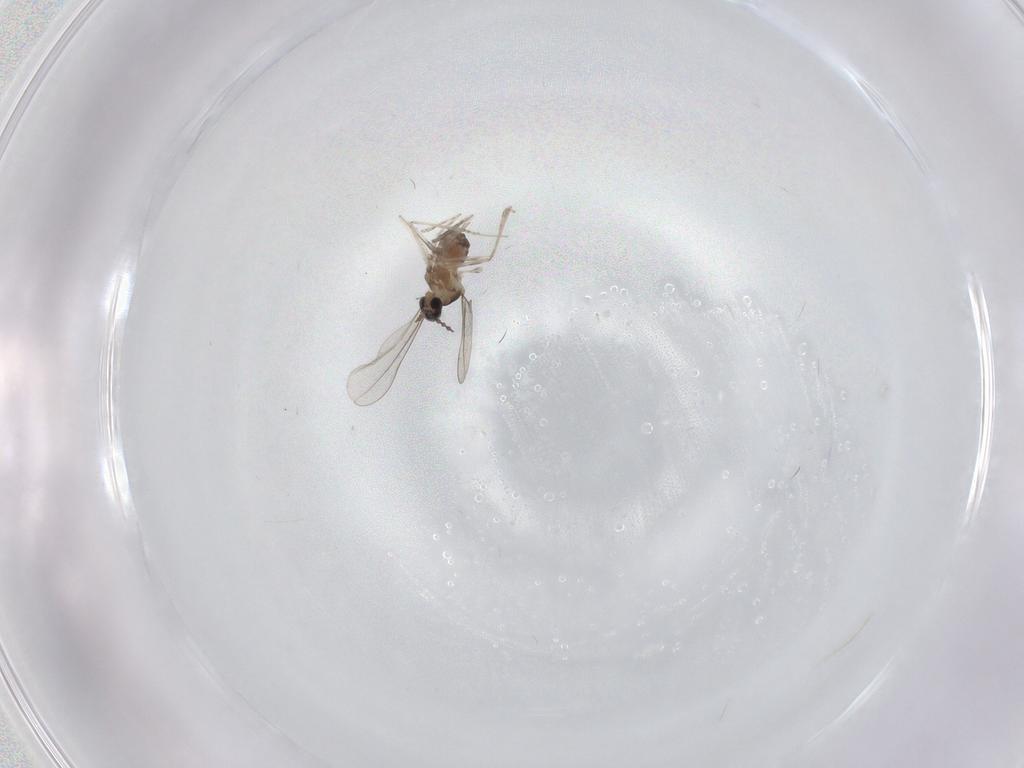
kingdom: Animalia
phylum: Arthropoda
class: Insecta
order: Diptera
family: Cecidomyiidae
